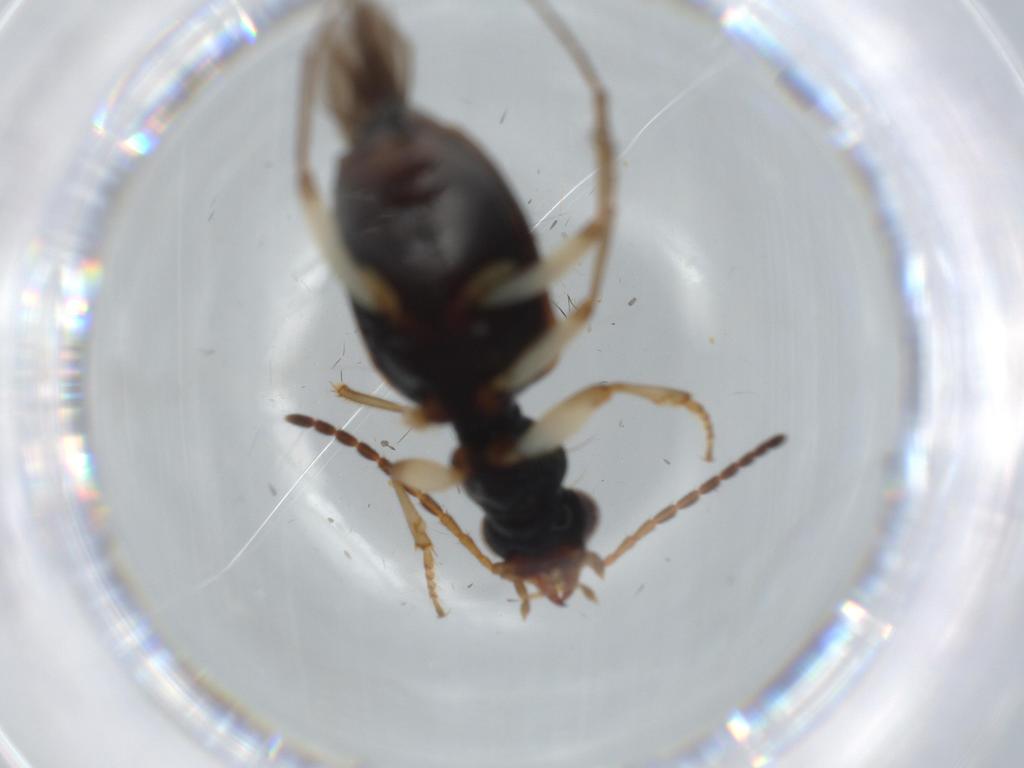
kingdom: Animalia
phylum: Arthropoda
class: Insecta
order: Coleoptera
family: Carabidae
